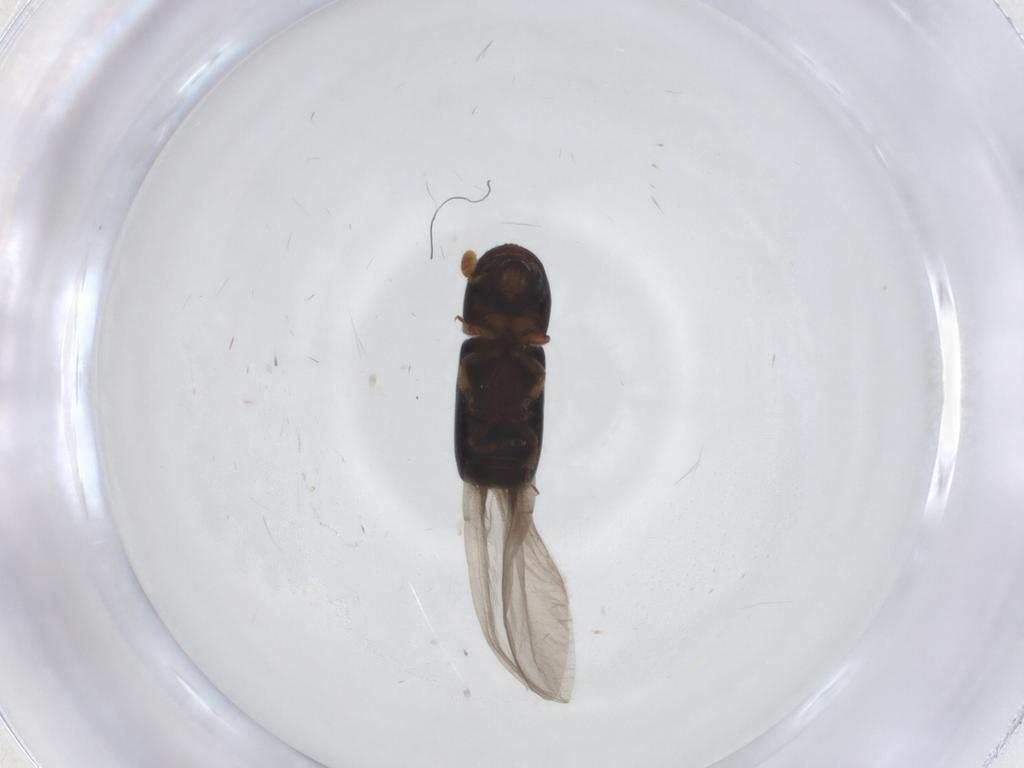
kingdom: Animalia
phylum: Arthropoda
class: Insecta
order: Coleoptera
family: Curculionidae
